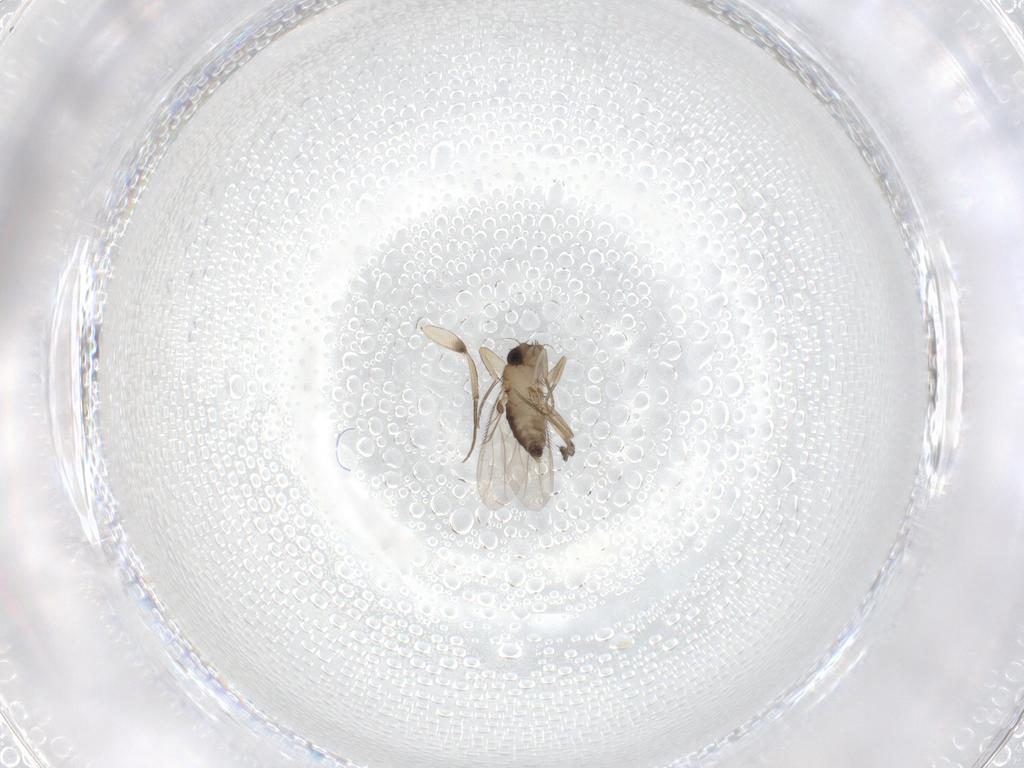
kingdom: Animalia
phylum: Arthropoda
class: Insecta
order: Diptera
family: Phoridae
